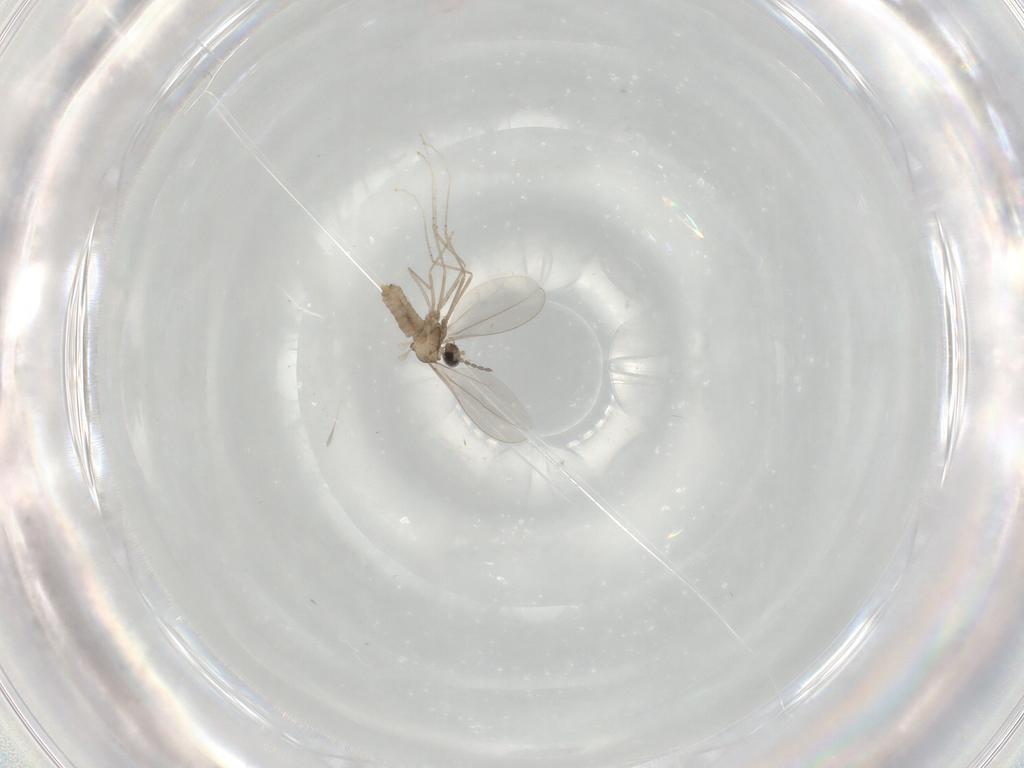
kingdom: Animalia
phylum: Arthropoda
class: Insecta
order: Diptera
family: Cecidomyiidae
